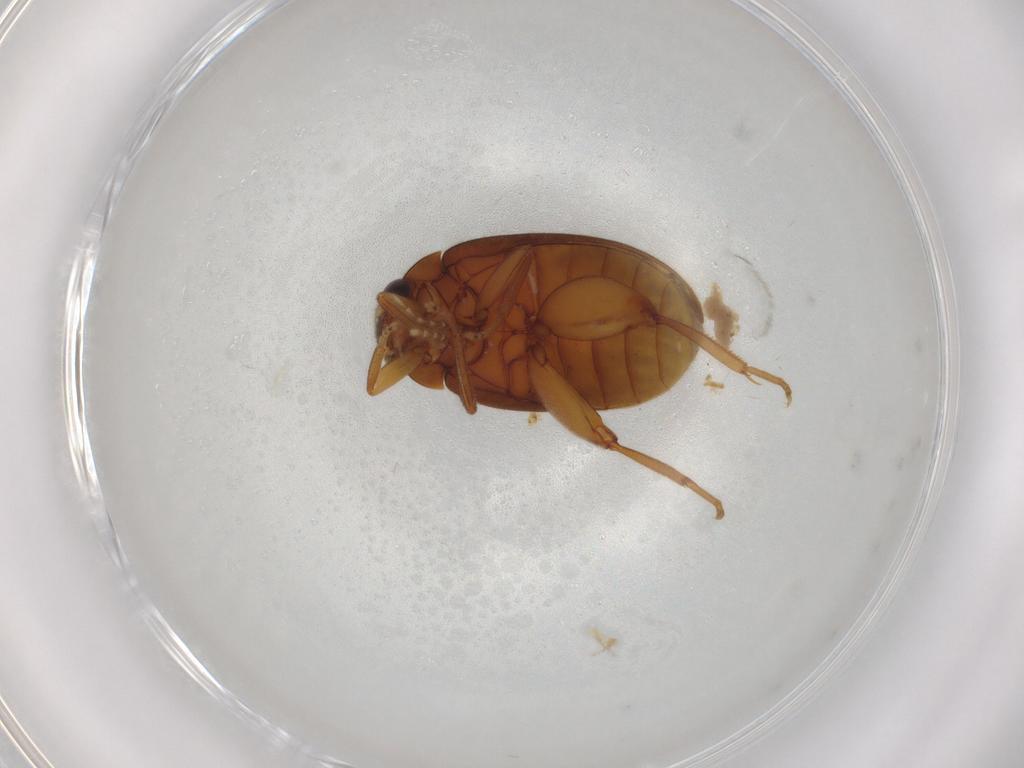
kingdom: Animalia
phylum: Arthropoda
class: Insecta
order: Coleoptera
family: Scirtidae
